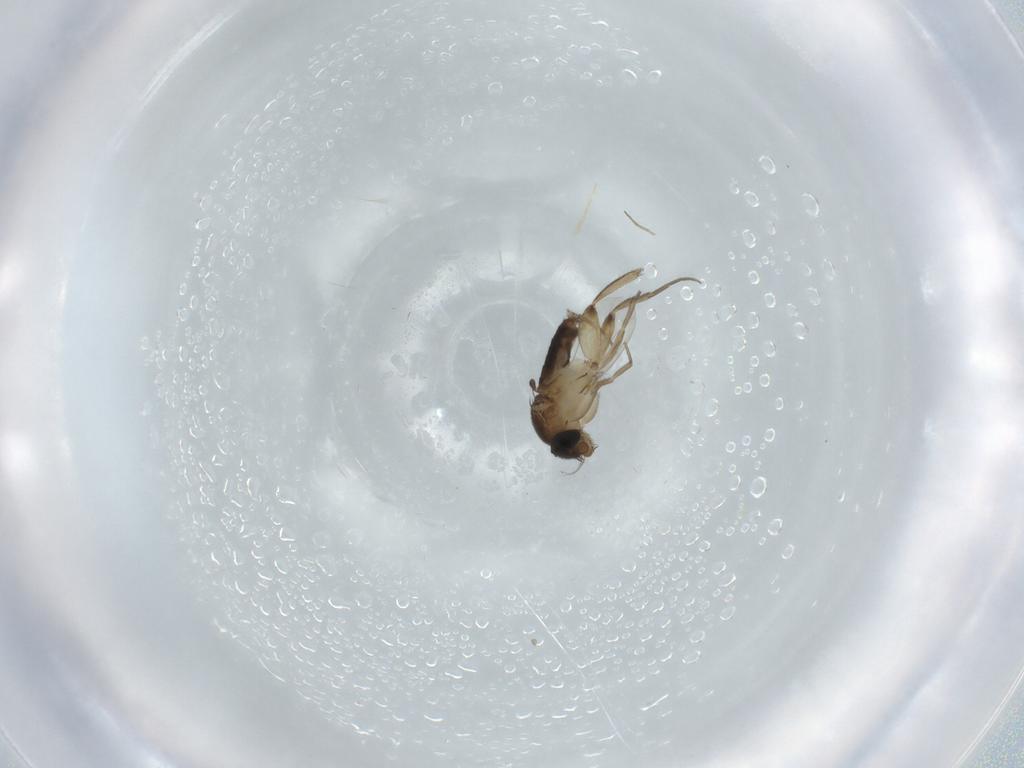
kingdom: Animalia
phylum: Arthropoda
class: Insecta
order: Diptera
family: Phoridae
